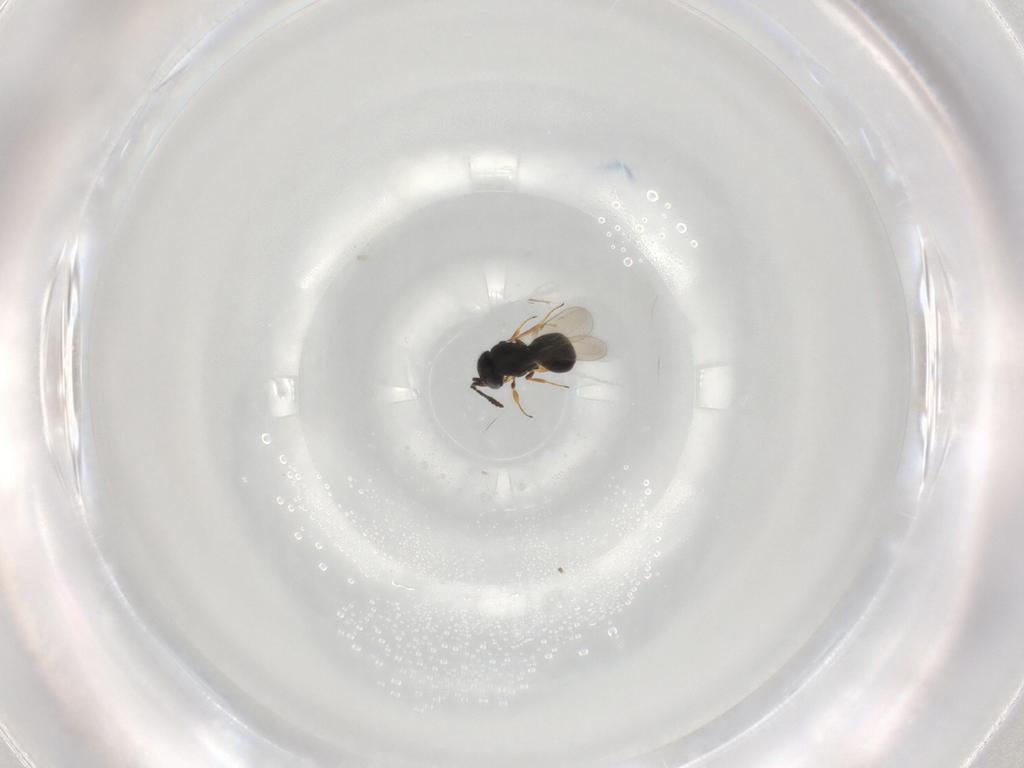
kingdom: Animalia
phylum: Arthropoda
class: Insecta
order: Hymenoptera
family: Scelionidae
